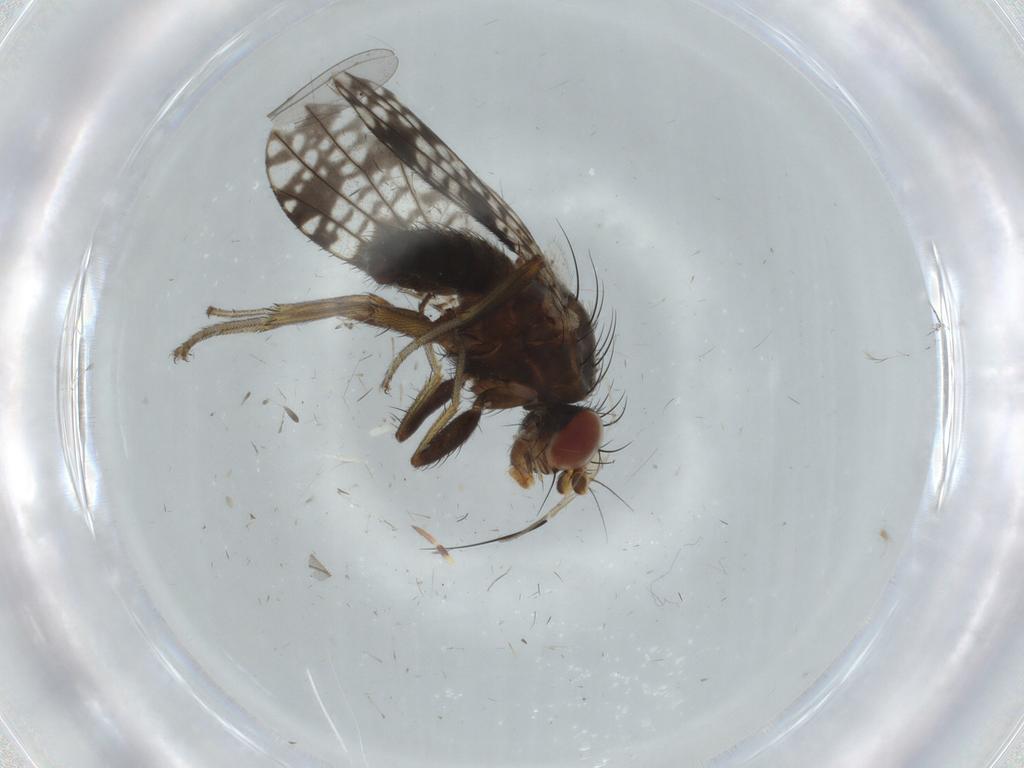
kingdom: Animalia
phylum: Arthropoda
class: Insecta
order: Diptera
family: Tephritidae
